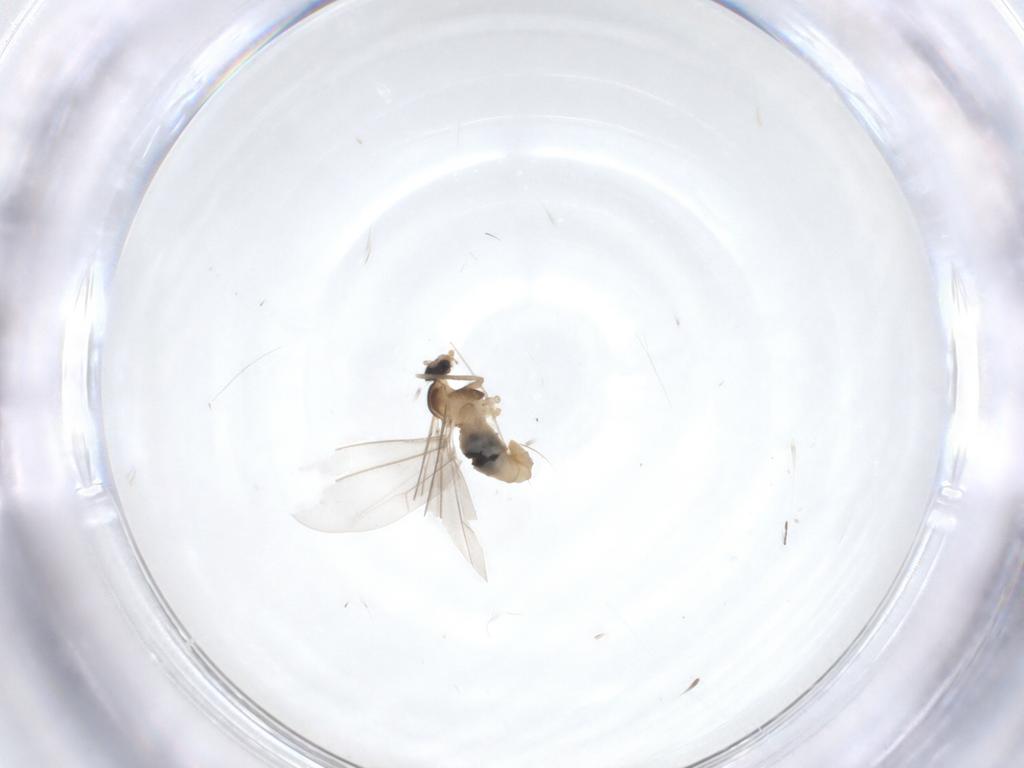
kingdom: Animalia
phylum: Arthropoda
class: Insecta
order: Diptera
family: Cecidomyiidae
